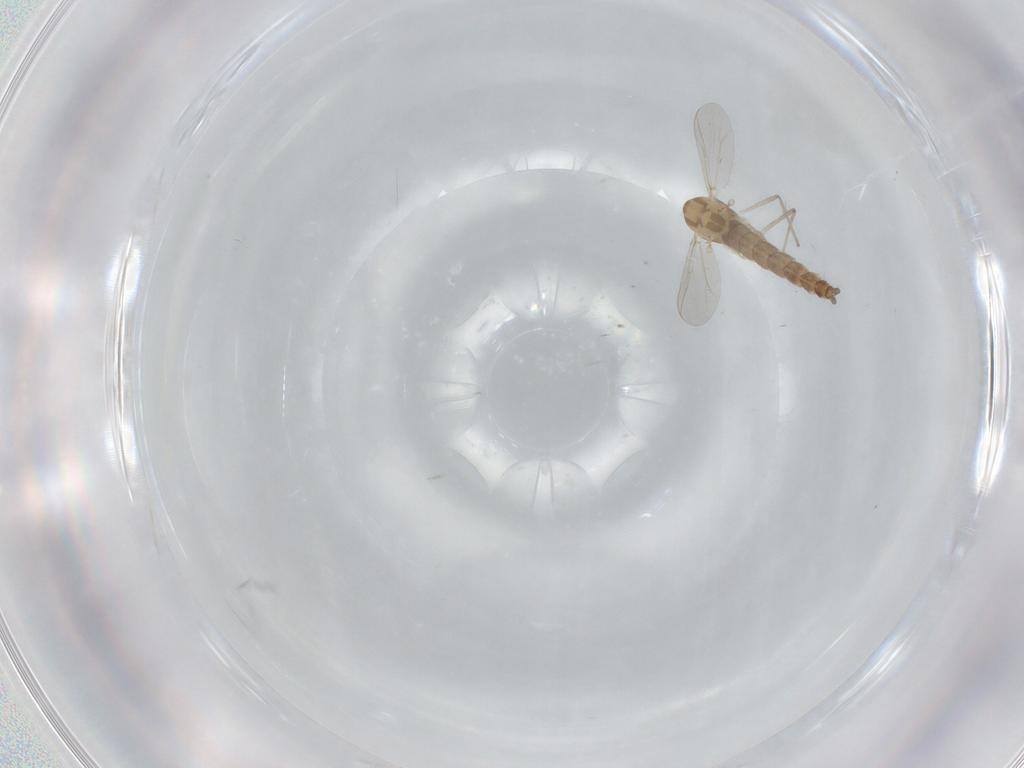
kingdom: Animalia
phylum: Arthropoda
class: Insecta
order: Diptera
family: Chironomidae
